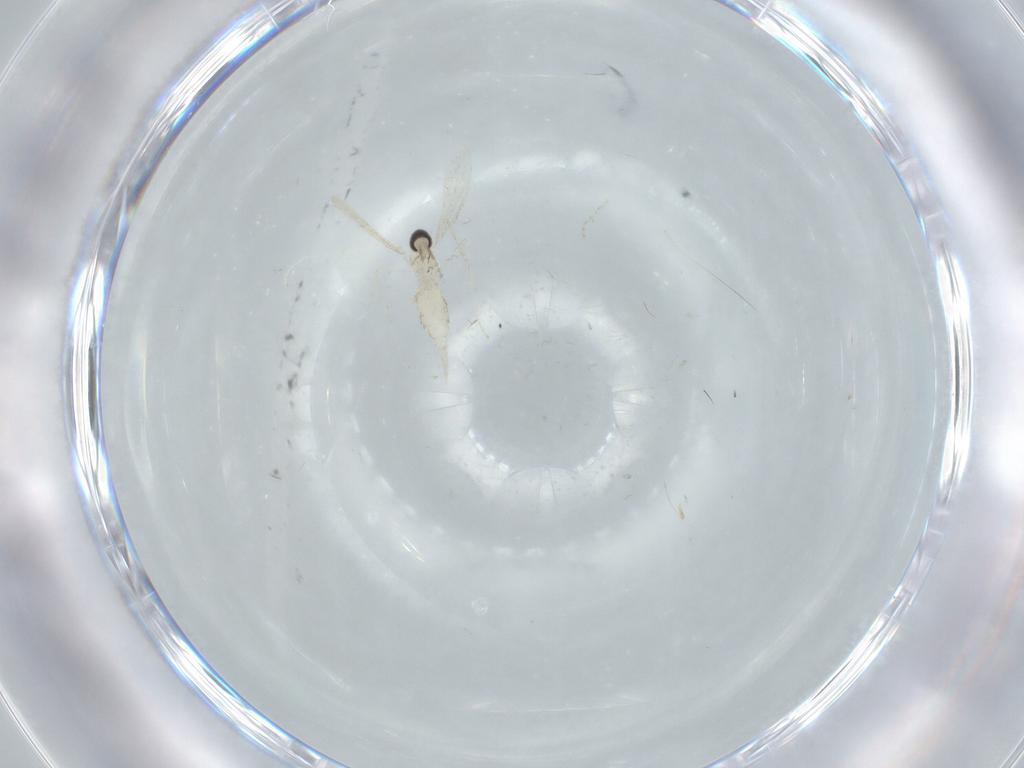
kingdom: Animalia
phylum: Arthropoda
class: Insecta
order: Diptera
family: Cecidomyiidae
